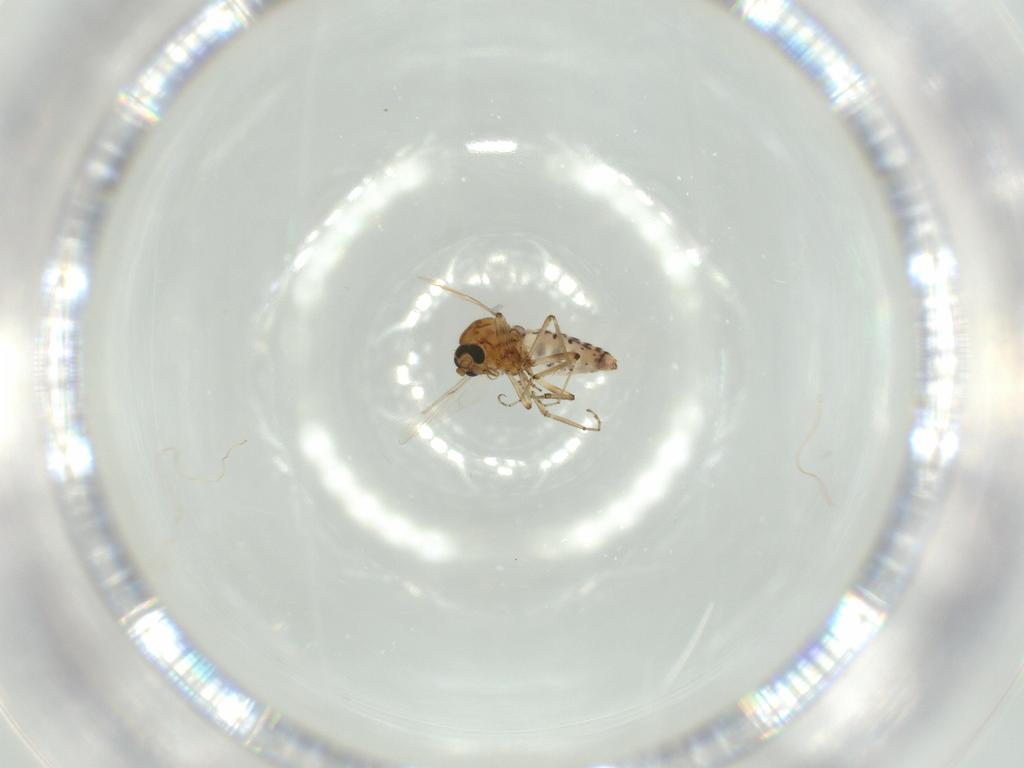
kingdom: Animalia
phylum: Arthropoda
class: Insecta
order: Diptera
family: Ceratopogonidae
